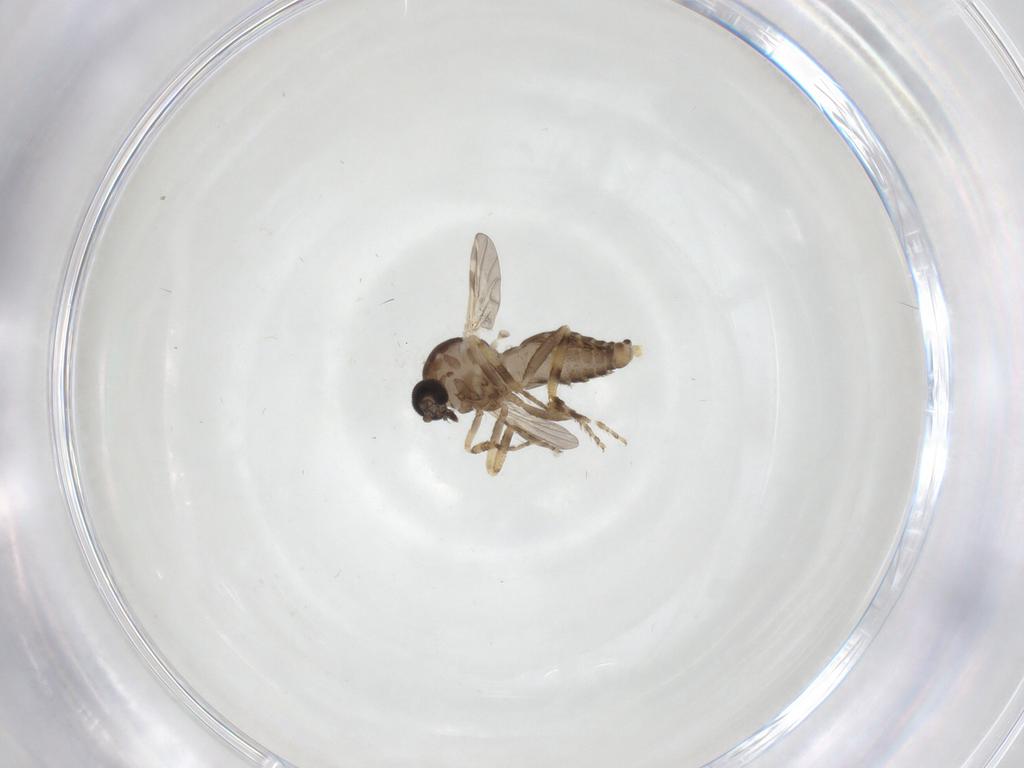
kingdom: Animalia
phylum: Arthropoda
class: Insecta
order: Diptera
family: Ceratopogonidae
